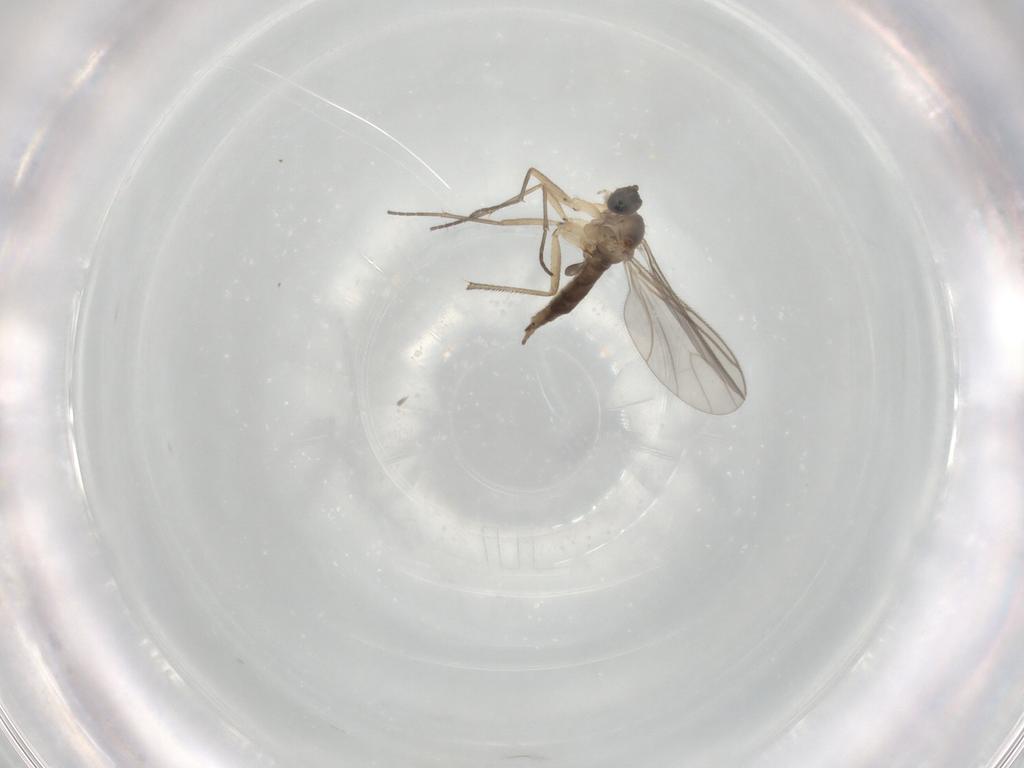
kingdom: Animalia
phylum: Arthropoda
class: Insecta
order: Diptera
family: Sciaridae
